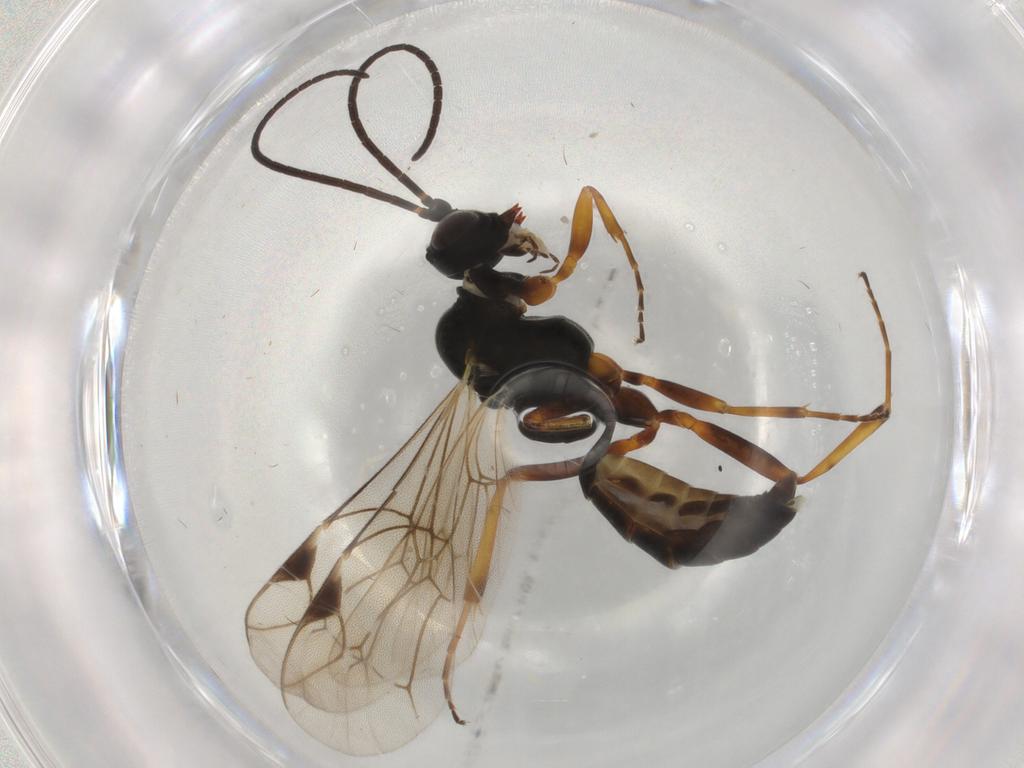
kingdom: Animalia
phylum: Arthropoda
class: Insecta
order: Hymenoptera
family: Ichneumonidae
